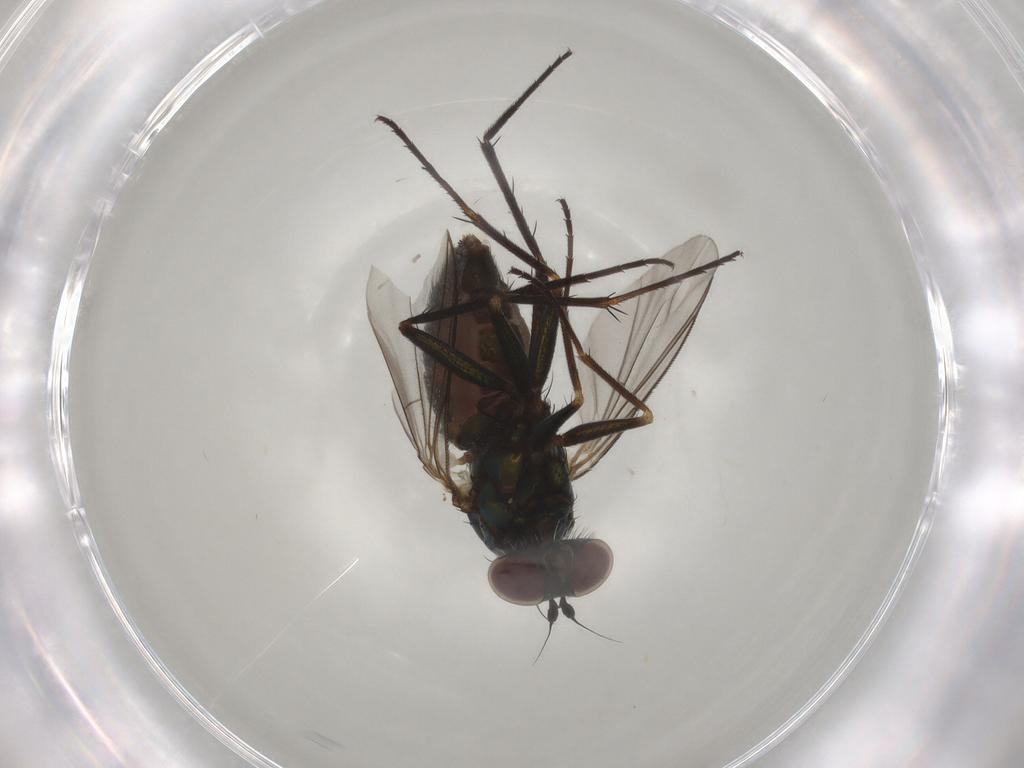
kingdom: Animalia
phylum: Arthropoda
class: Insecta
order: Diptera
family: Dolichopodidae
